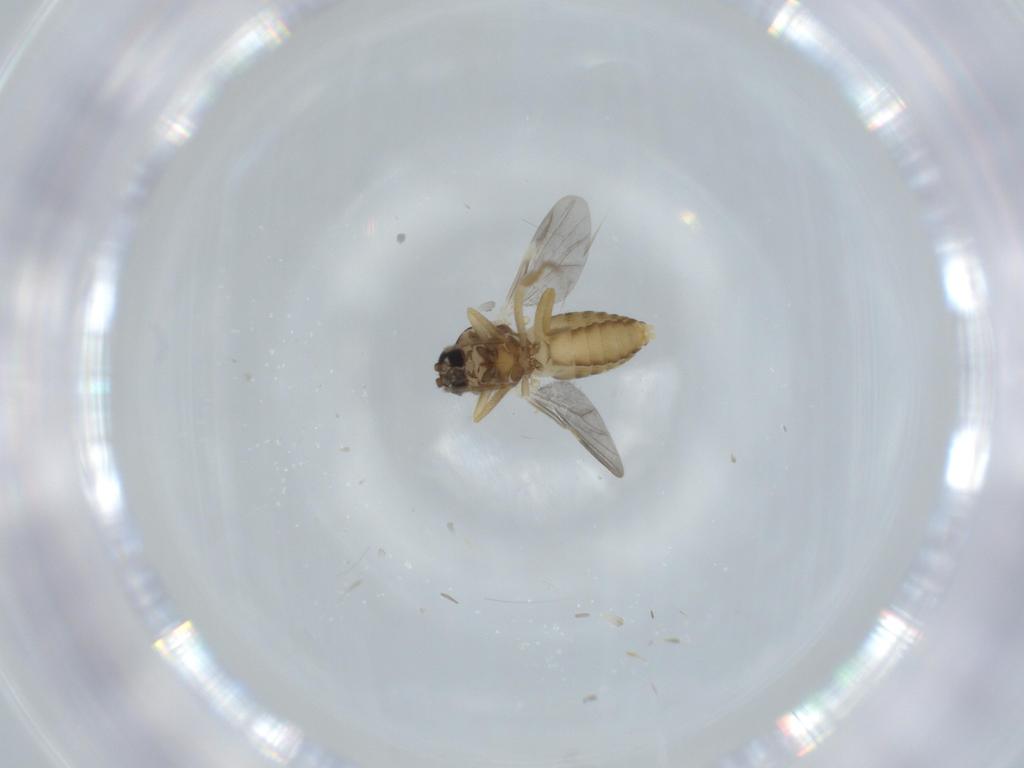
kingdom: Animalia
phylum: Arthropoda
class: Insecta
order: Diptera
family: Ceratopogonidae
